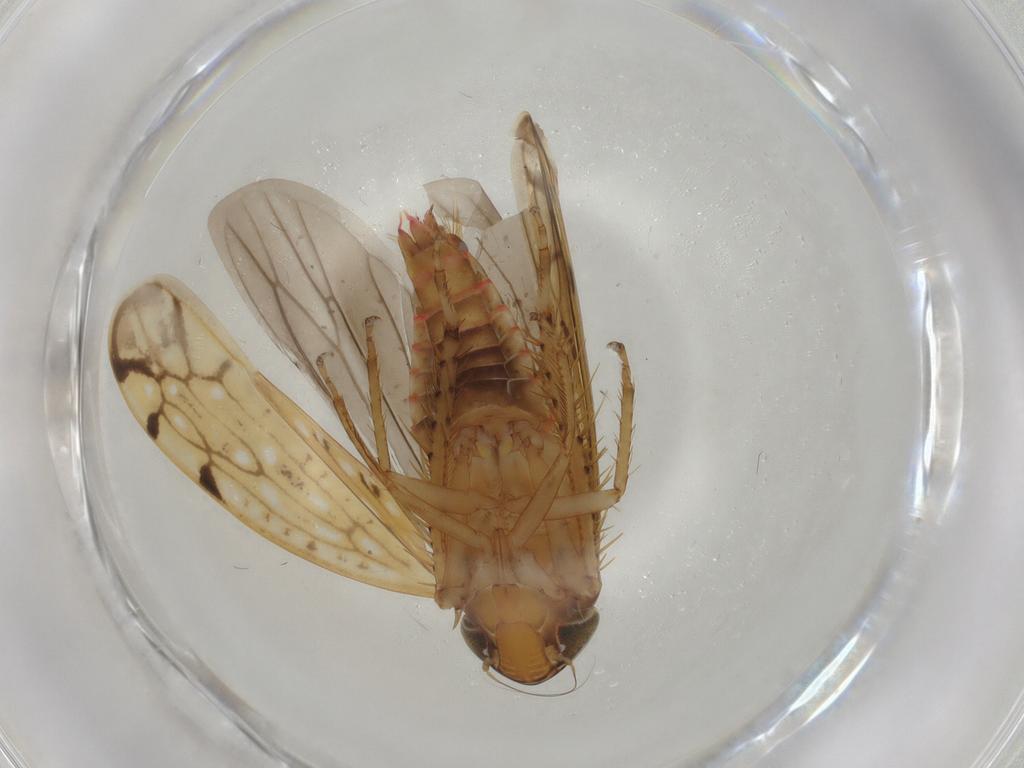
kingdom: Animalia
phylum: Arthropoda
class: Insecta
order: Hemiptera
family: Cicadellidae
